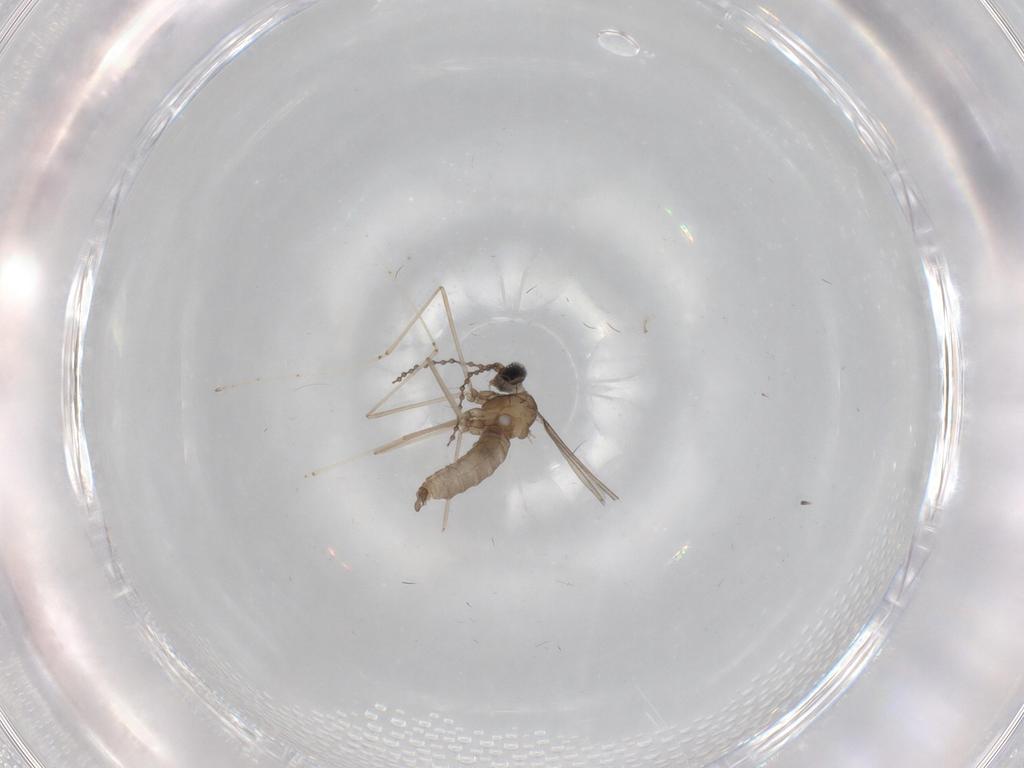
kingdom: Animalia
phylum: Arthropoda
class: Insecta
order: Diptera
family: Cecidomyiidae
